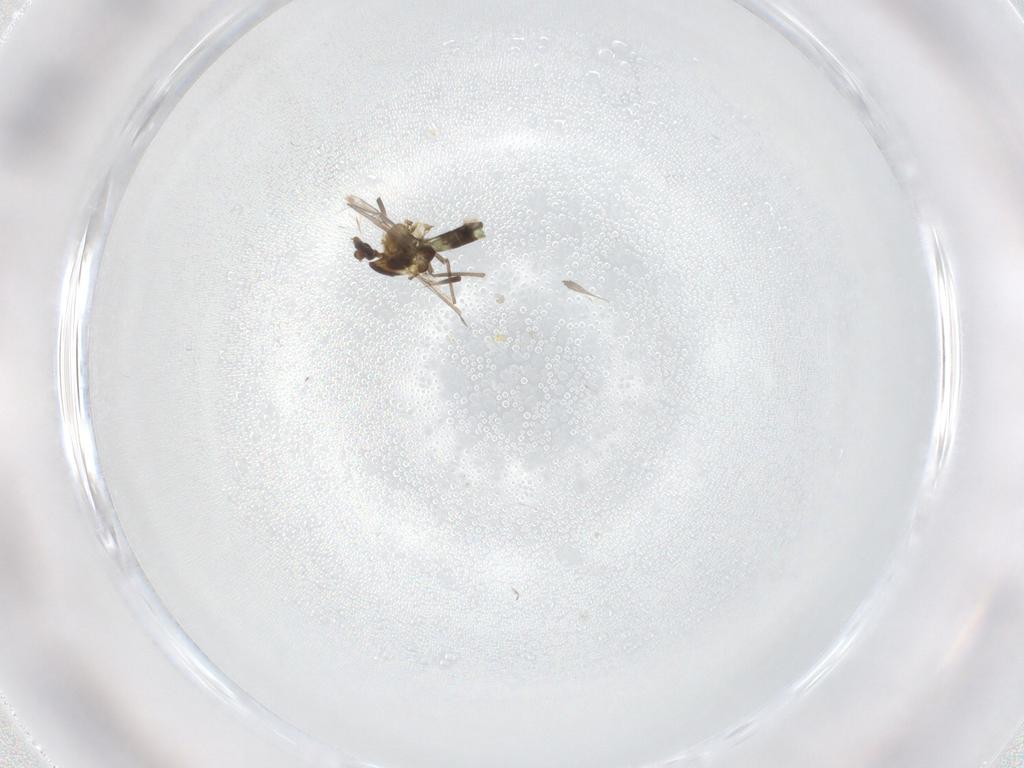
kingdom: Animalia
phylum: Arthropoda
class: Insecta
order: Diptera
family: Chironomidae
